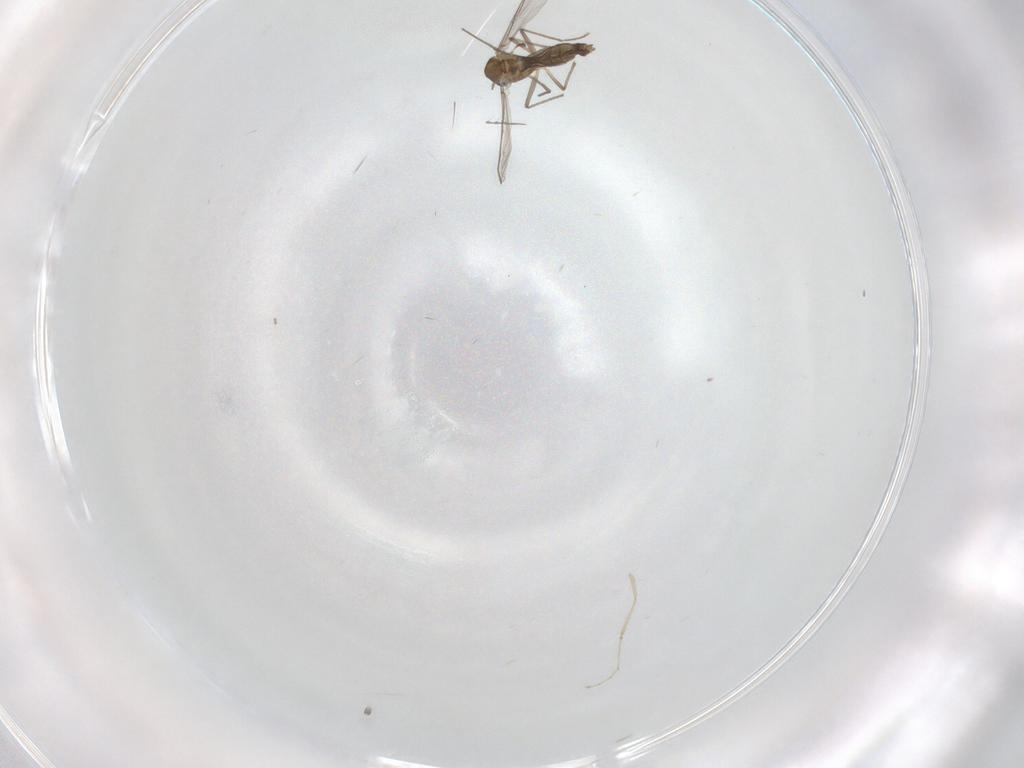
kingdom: Animalia
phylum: Arthropoda
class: Insecta
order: Diptera
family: Chironomidae
